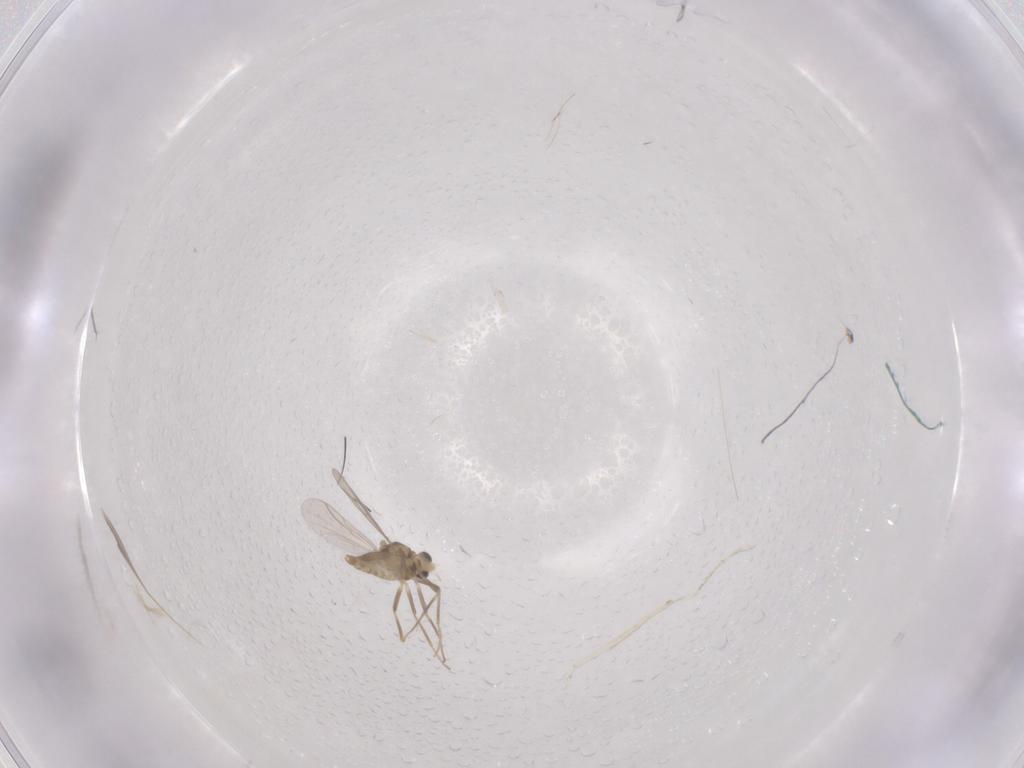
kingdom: Animalia
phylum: Arthropoda
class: Insecta
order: Diptera
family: Chironomidae
